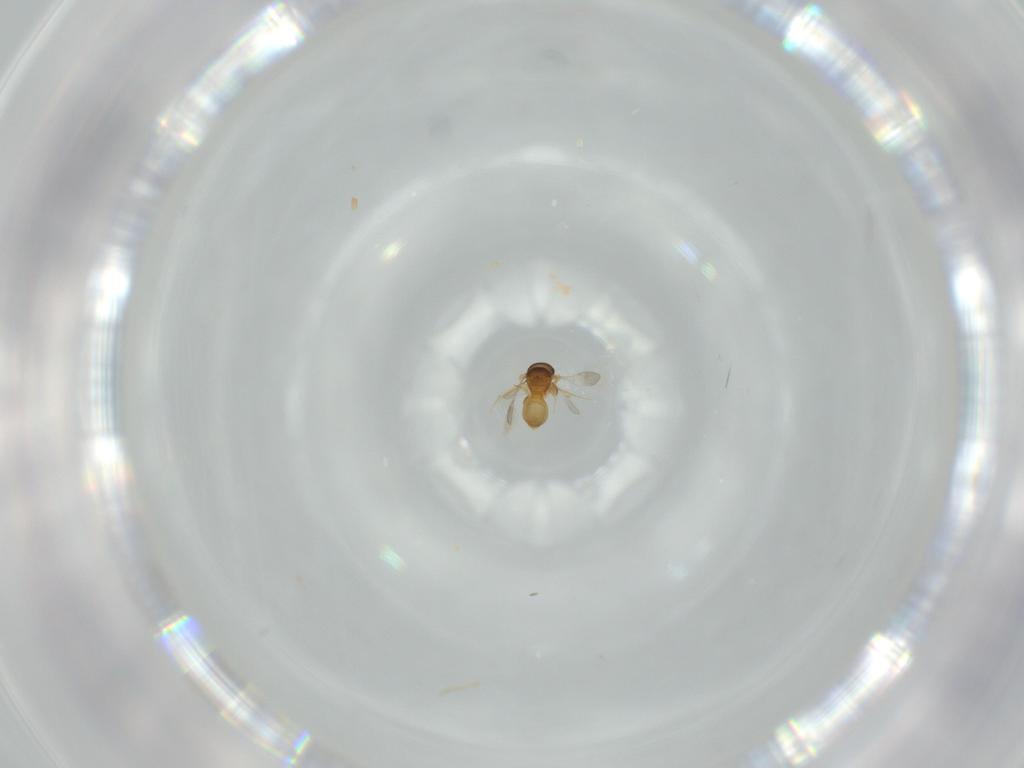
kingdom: Animalia
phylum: Arthropoda
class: Insecta
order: Hymenoptera
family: Scelionidae
